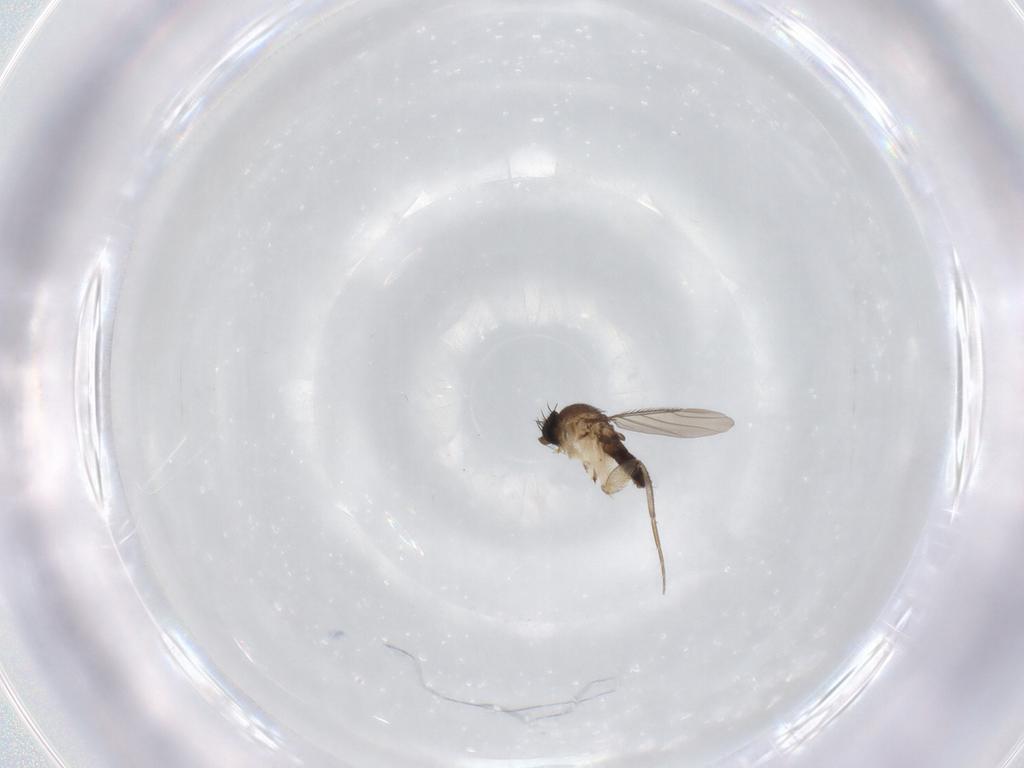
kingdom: Animalia
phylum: Arthropoda
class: Insecta
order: Diptera
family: Phoridae
